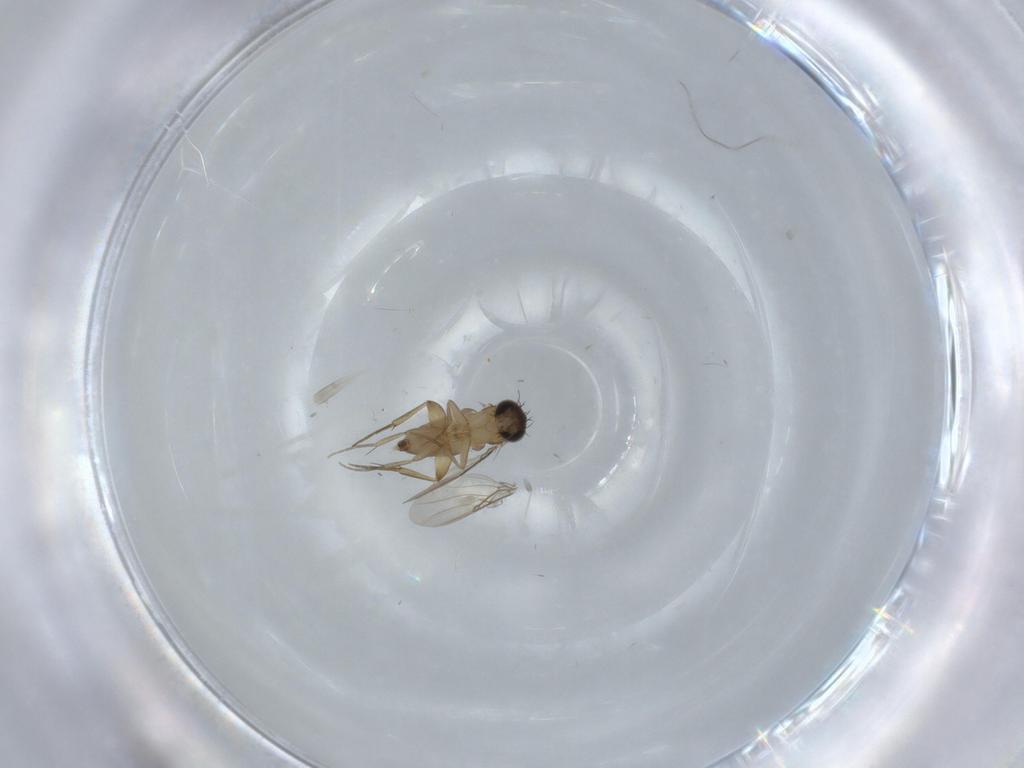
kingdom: Animalia
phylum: Arthropoda
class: Insecta
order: Diptera
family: Phoridae
